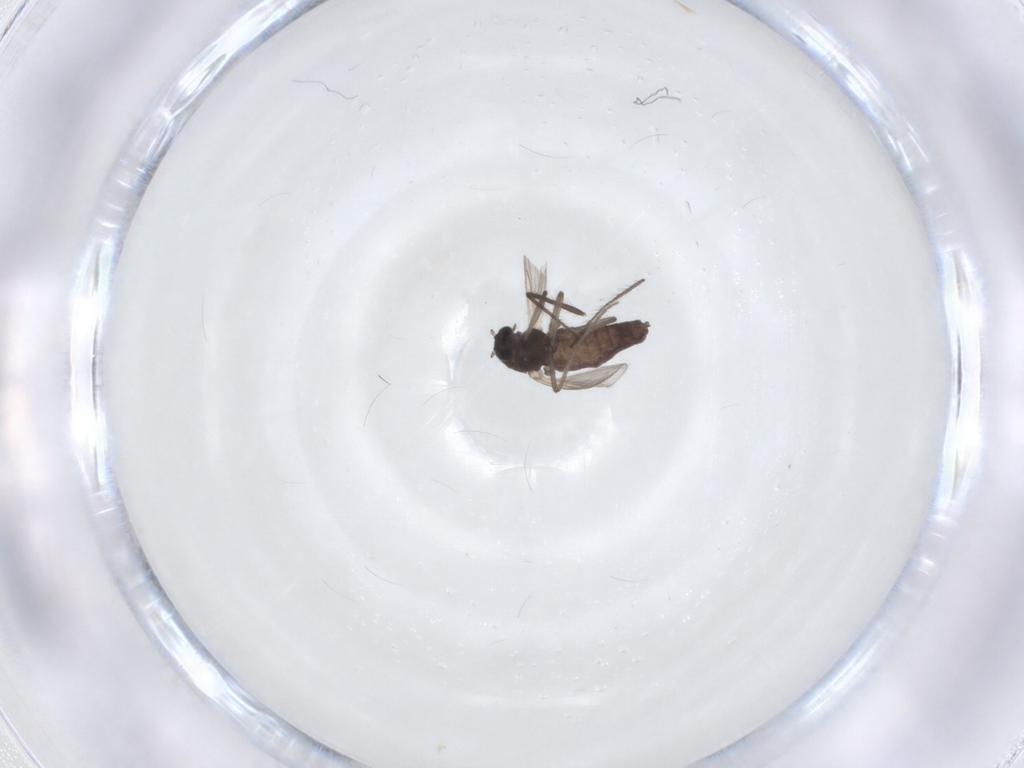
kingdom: Animalia
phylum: Arthropoda
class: Insecta
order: Diptera
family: Chironomidae
